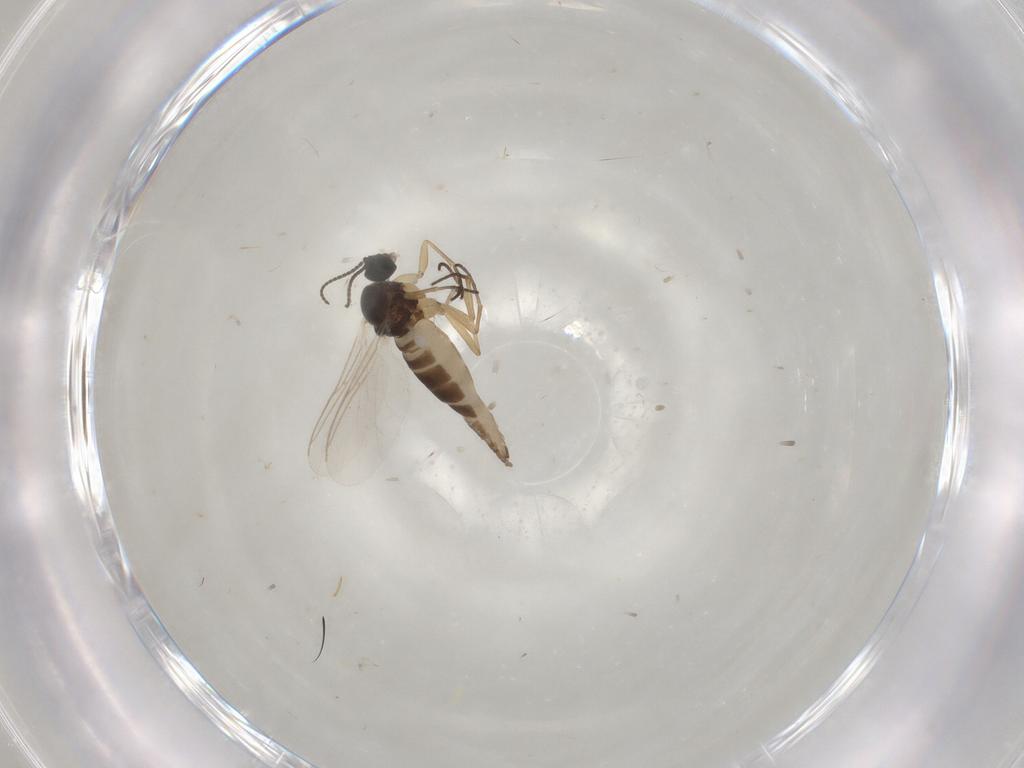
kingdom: Animalia
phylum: Arthropoda
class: Insecta
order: Diptera
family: Sciaridae
